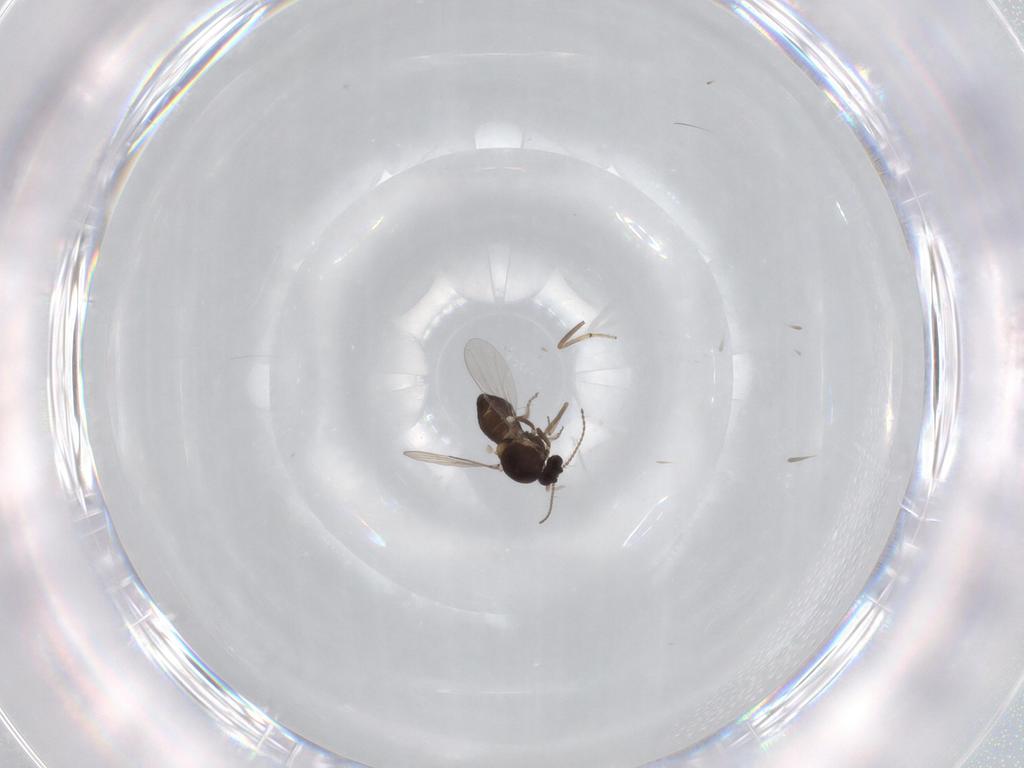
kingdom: Animalia
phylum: Arthropoda
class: Insecta
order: Diptera
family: Ceratopogonidae
